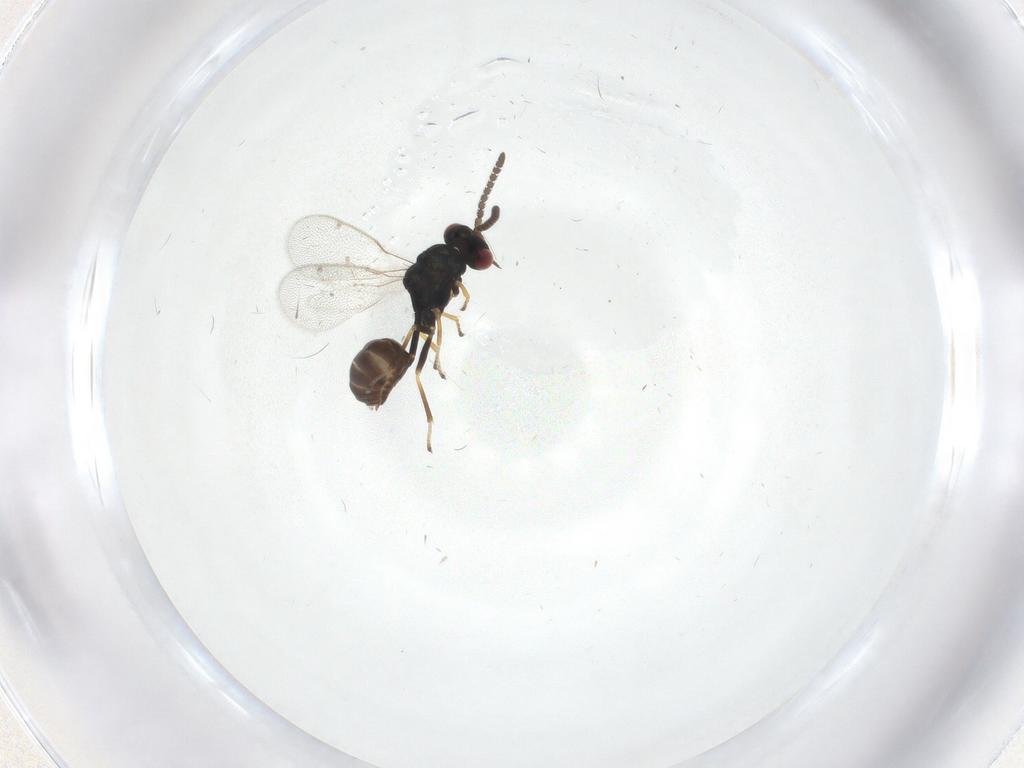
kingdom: Animalia
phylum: Arthropoda
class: Insecta
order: Hymenoptera
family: Eucharitidae
